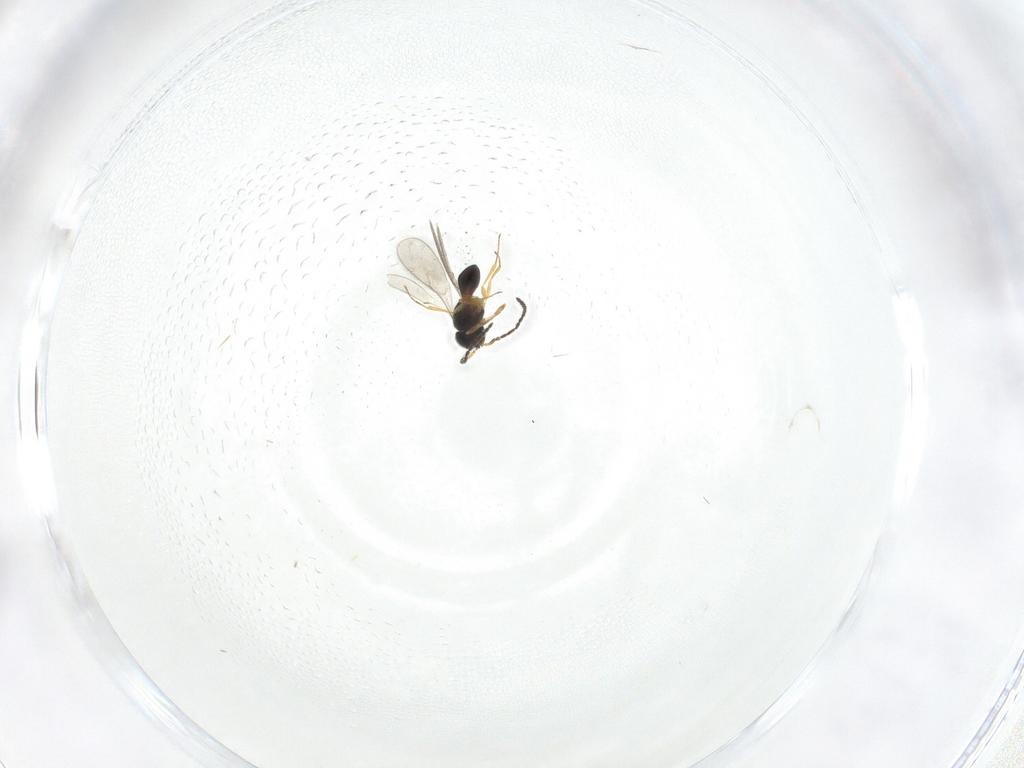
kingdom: Animalia
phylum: Arthropoda
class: Insecta
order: Hymenoptera
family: Scelionidae
